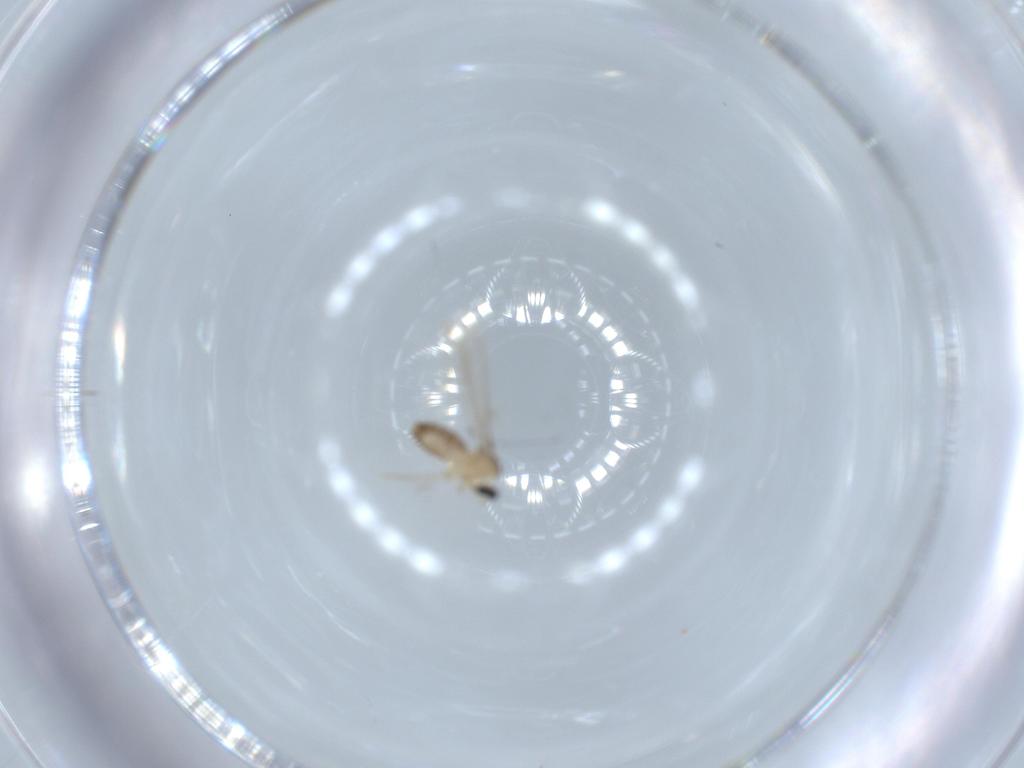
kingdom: Animalia
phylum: Arthropoda
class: Insecta
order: Diptera
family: Cecidomyiidae
